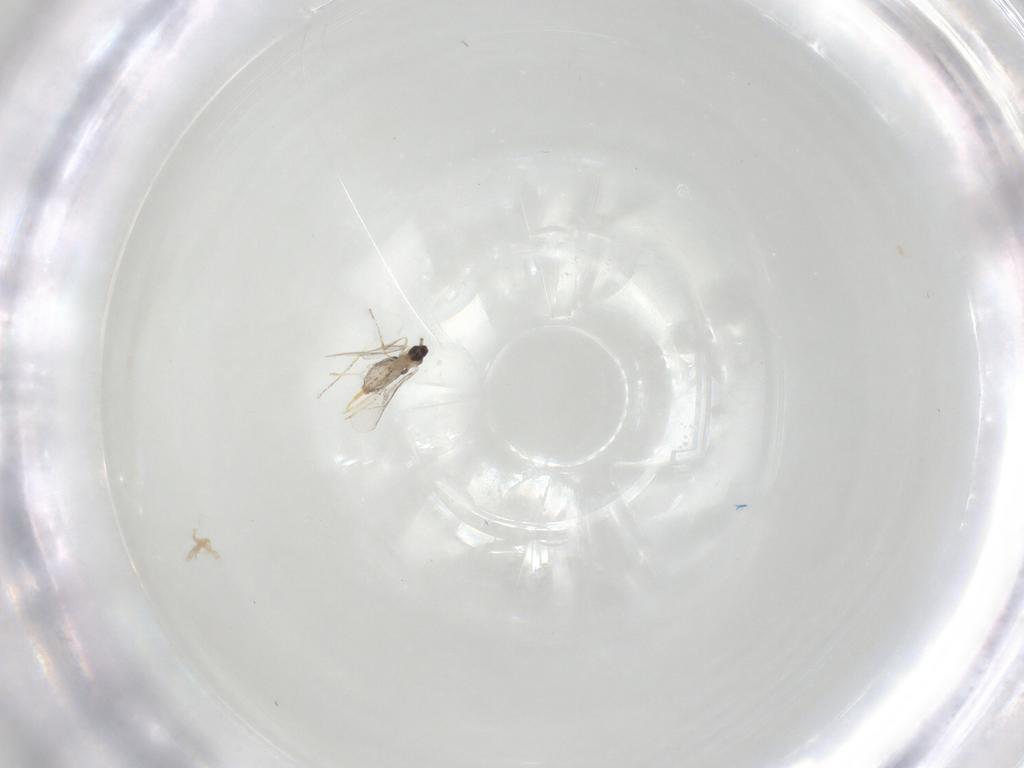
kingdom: Animalia
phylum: Arthropoda
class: Insecta
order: Diptera
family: Cecidomyiidae
